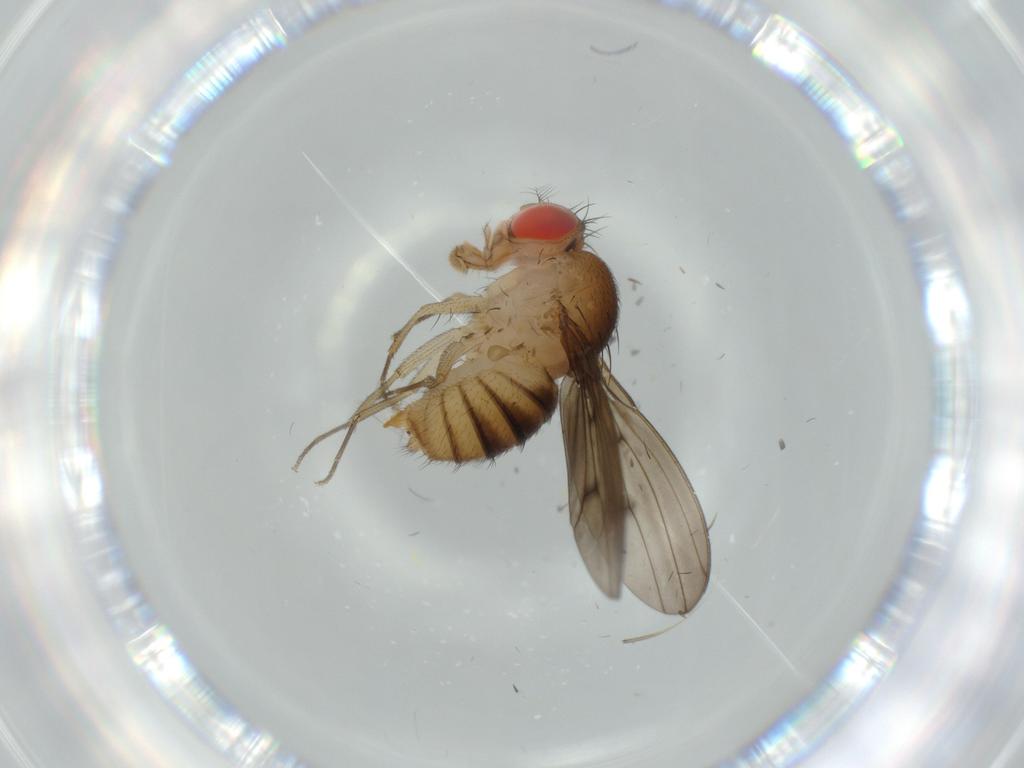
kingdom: Animalia
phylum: Arthropoda
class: Insecta
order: Diptera
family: Drosophilidae
